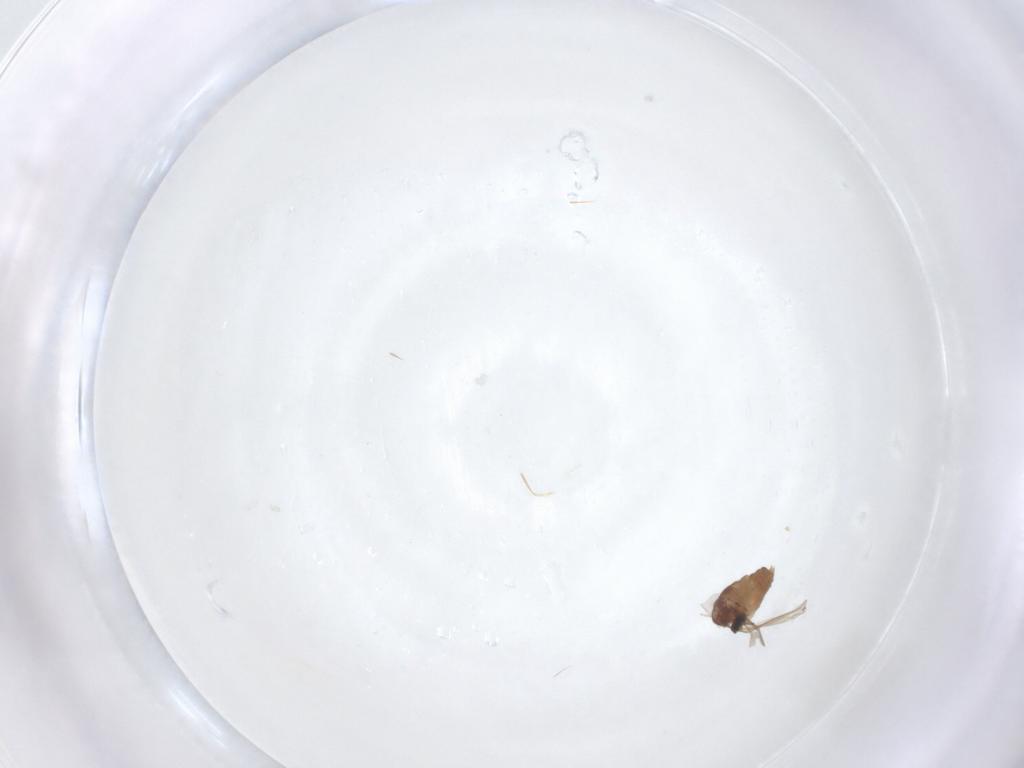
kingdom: Animalia
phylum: Arthropoda
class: Insecta
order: Diptera
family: Cecidomyiidae
